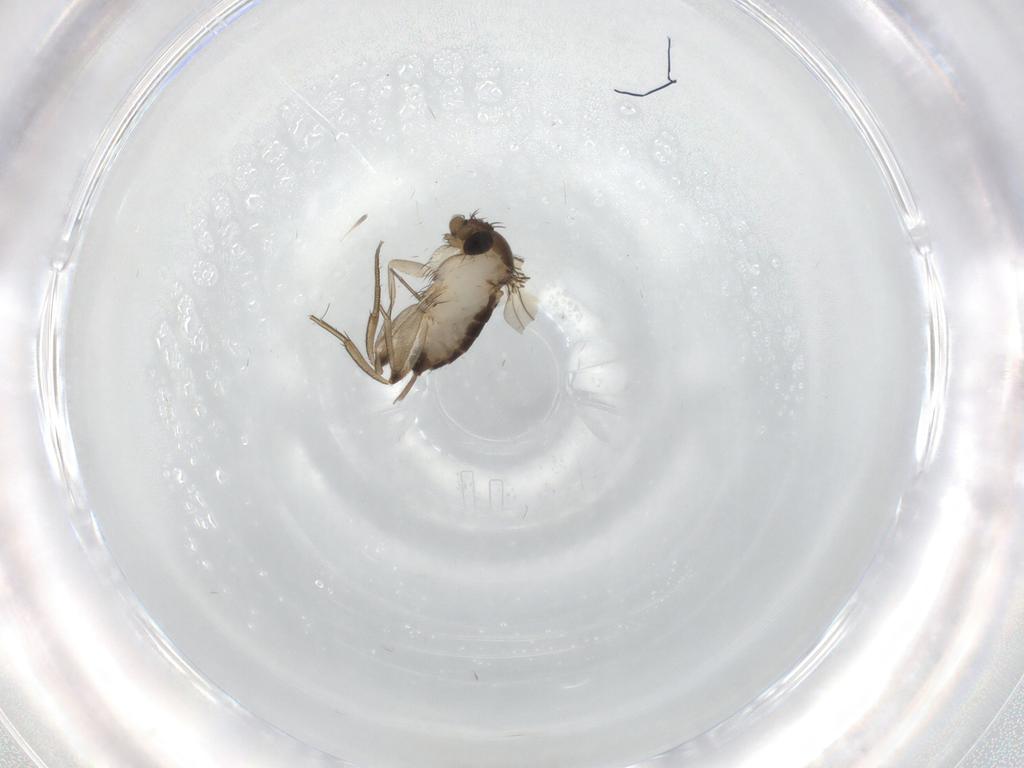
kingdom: Animalia
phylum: Arthropoda
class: Insecta
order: Diptera
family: Phoridae
